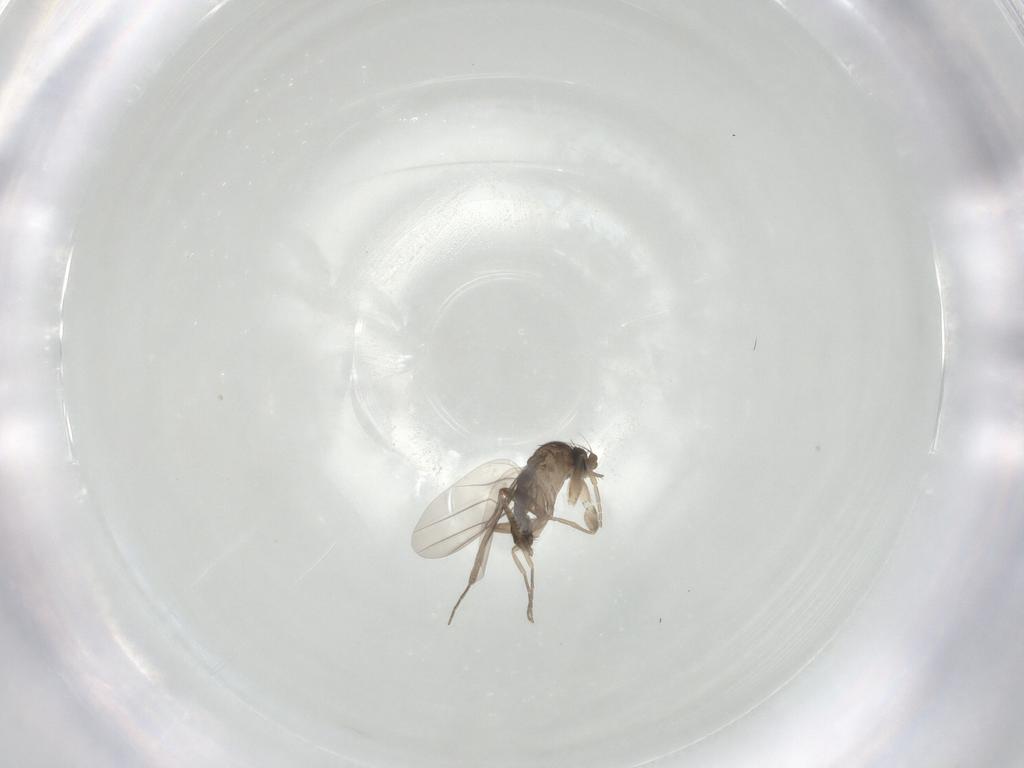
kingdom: Animalia
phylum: Arthropoda
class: Insecta
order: Diptera
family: Phoridae
